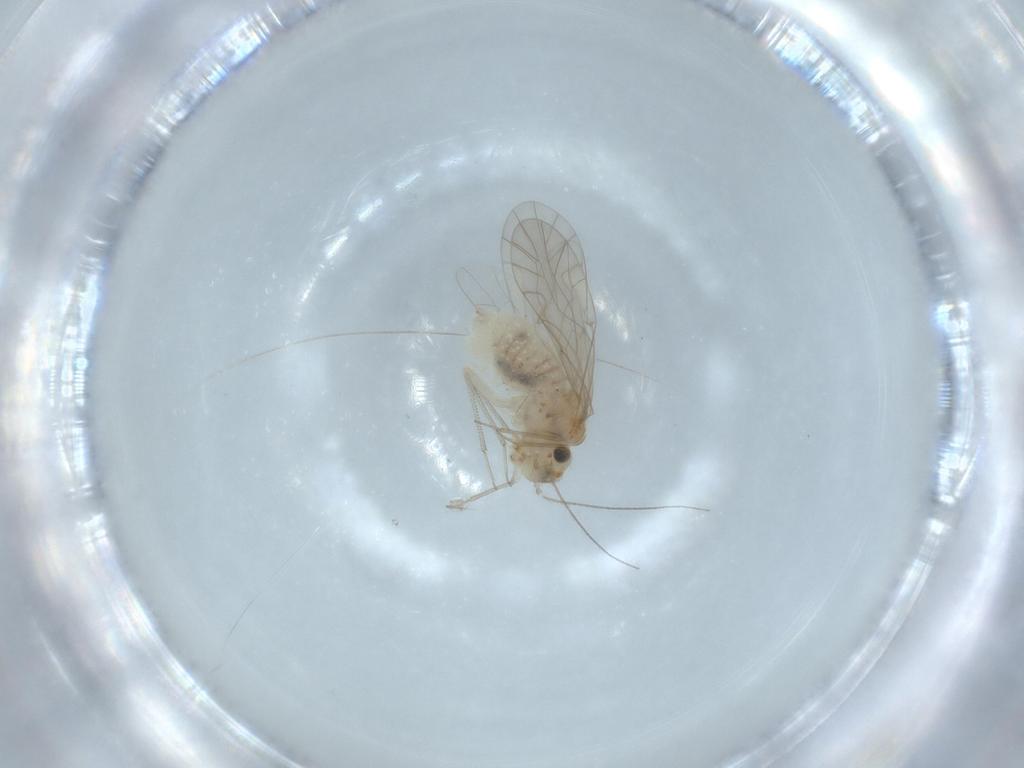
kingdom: Animalia
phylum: Arthropoda
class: Insecta
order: Psocodea
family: Lachesillidae
